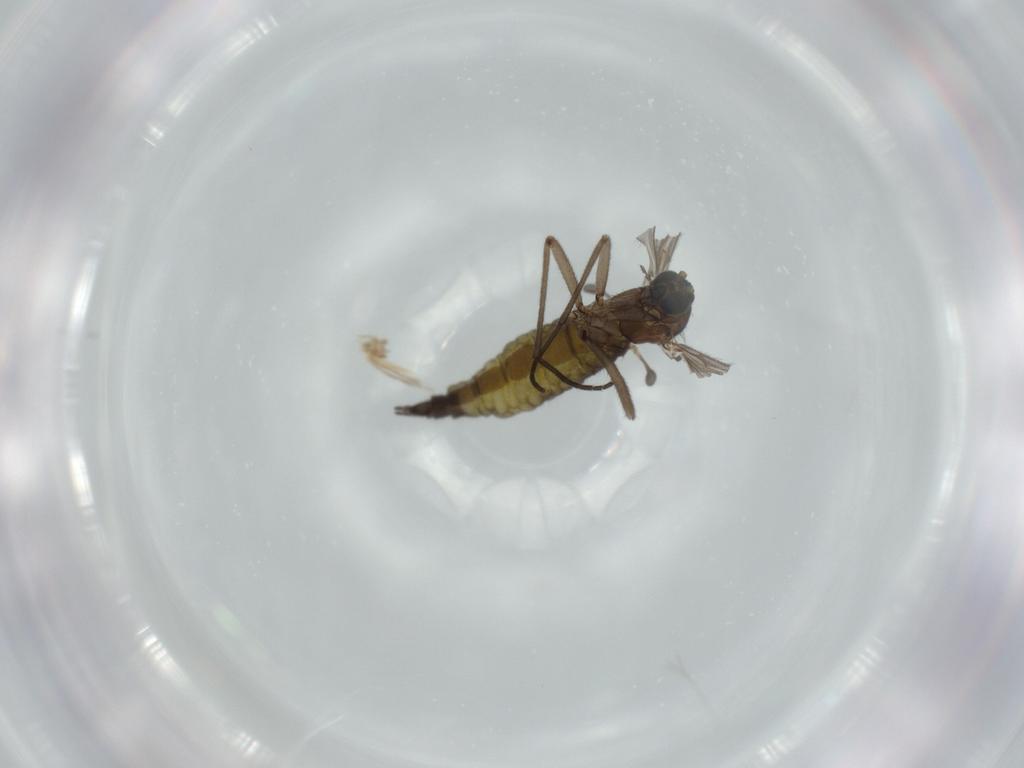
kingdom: Animalia
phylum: Arthropoda
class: Insecta
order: Diptera
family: Sciaridae
